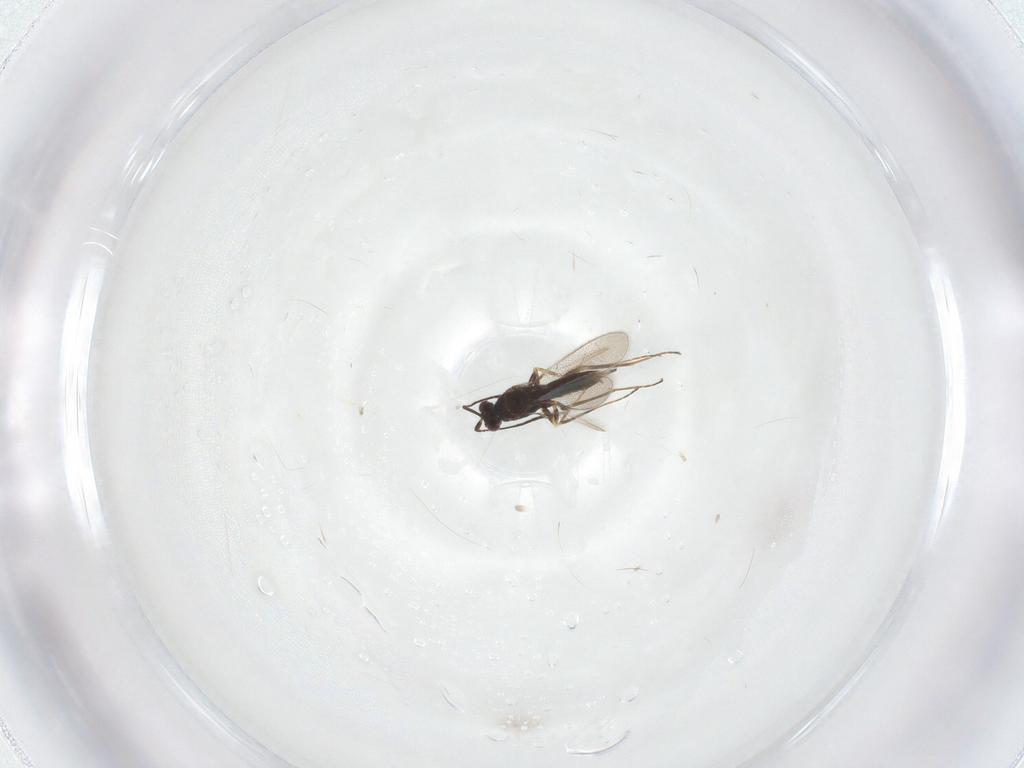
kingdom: Animalia
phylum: Arthropoda
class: Insecta
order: Hymenoptera
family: Mymaridae
